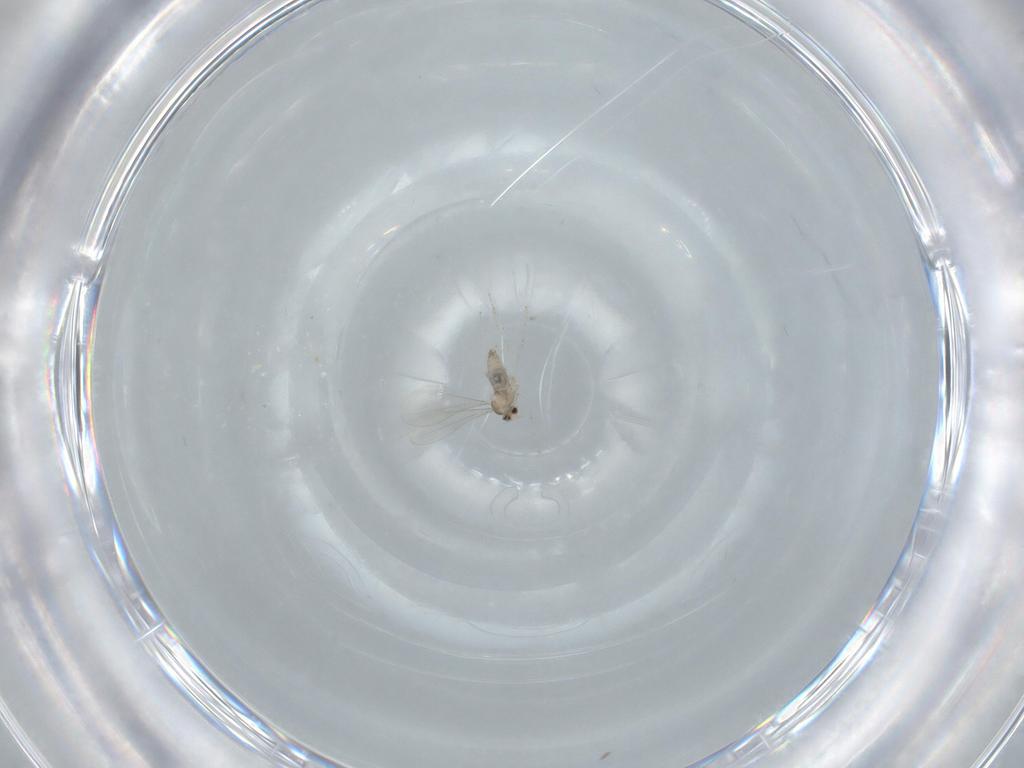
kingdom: Animalia
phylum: Arthropoda
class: Insecta
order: Diptera
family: Cecidomyiidae
